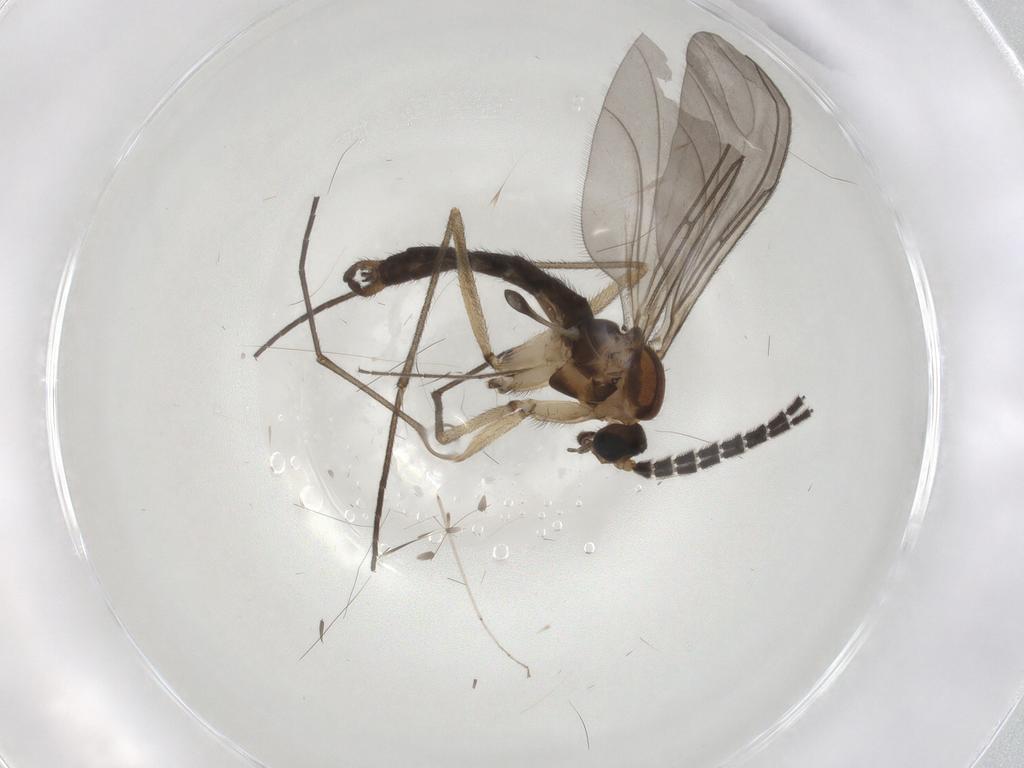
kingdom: Animalia
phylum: Arthropoda
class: Insecta
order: Diptera
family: Sciaridae
